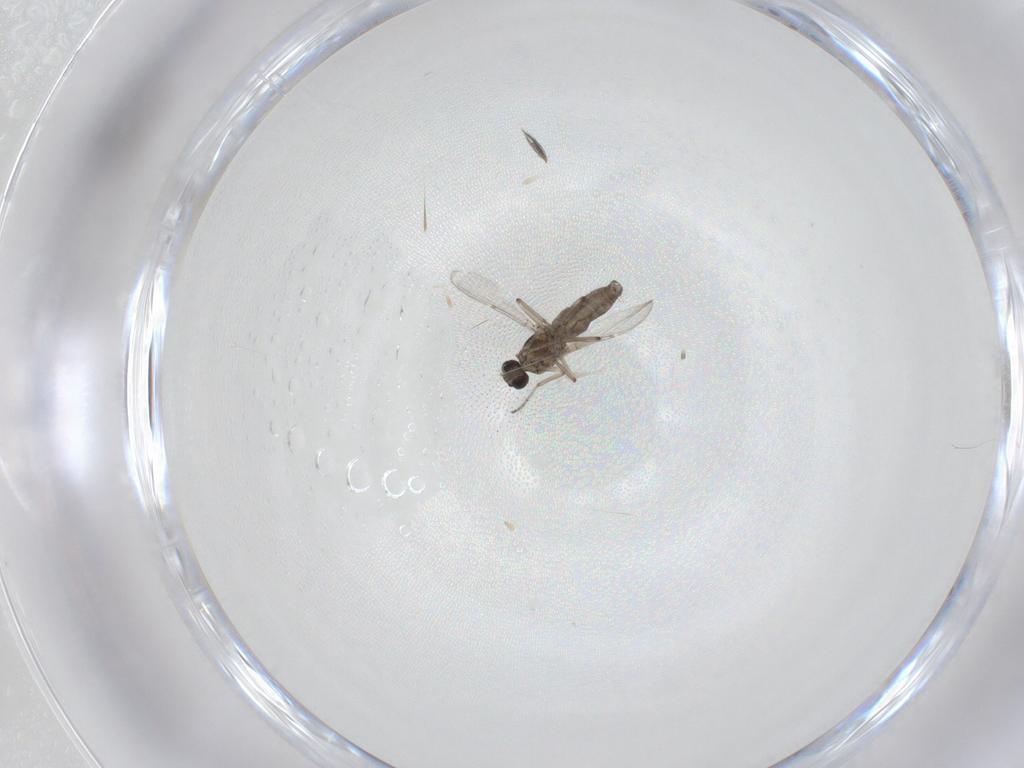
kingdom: Animalia
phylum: Arthropoda
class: Insecta
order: Diptera
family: Ceratopogonidae
